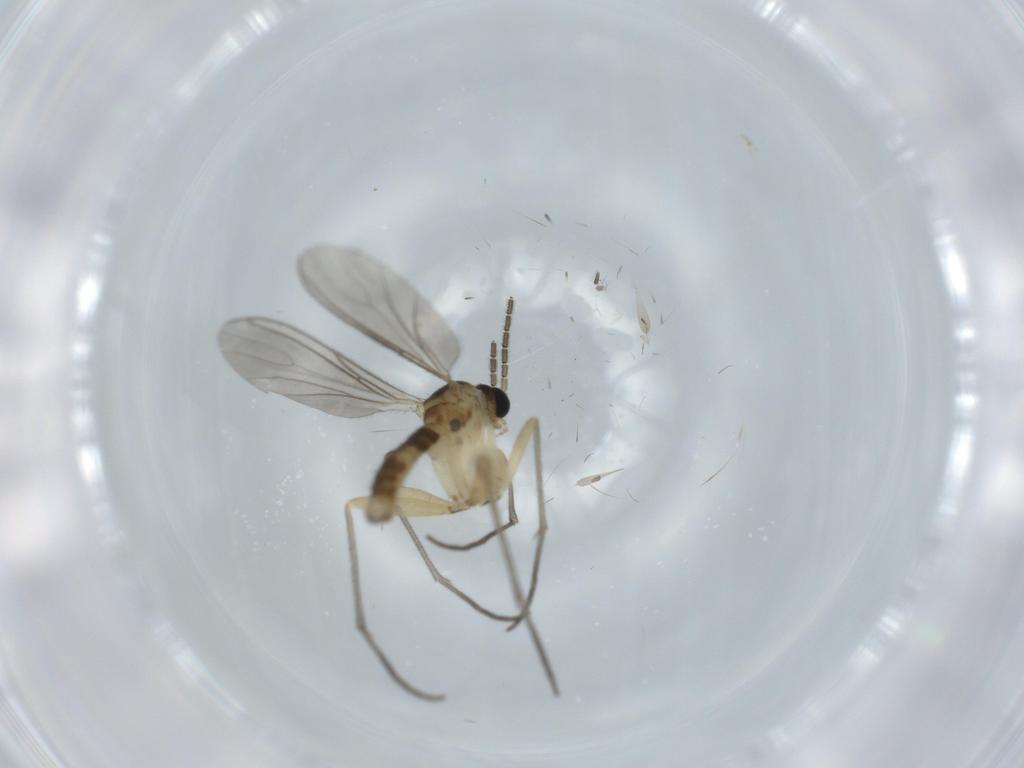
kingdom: Animalia
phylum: Arthropoda
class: Insecta
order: Diptera
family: Sciaridae
